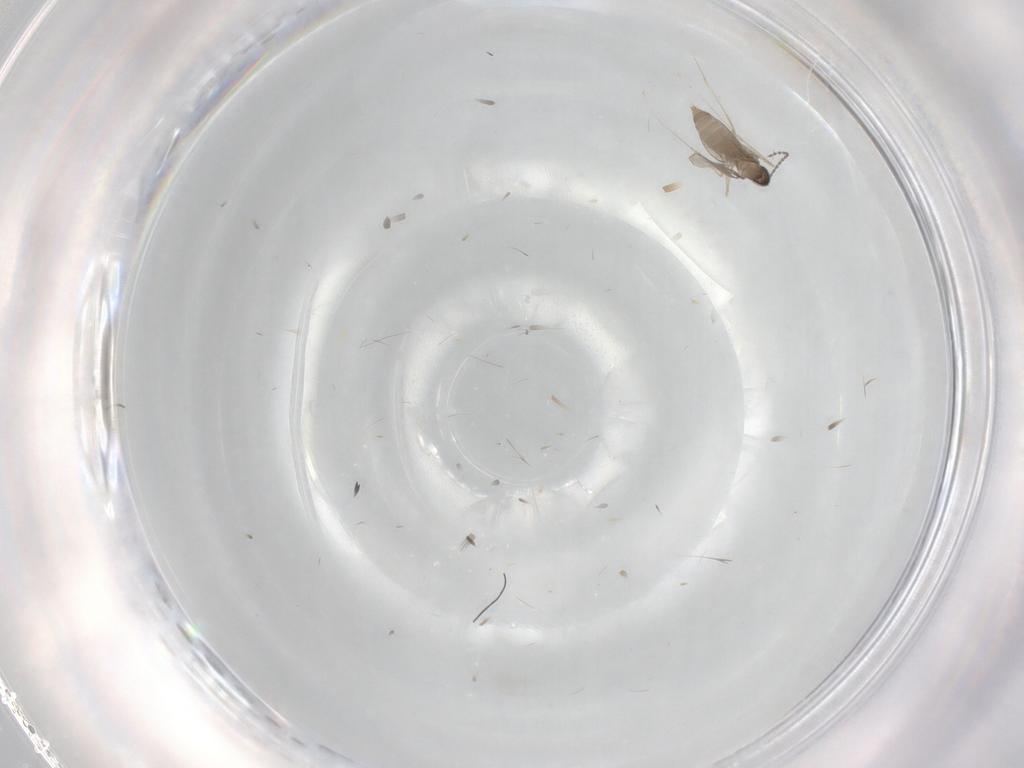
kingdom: Animalia
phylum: Arthropoda
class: Insecta
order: Diptera
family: Cecidomyiidae
